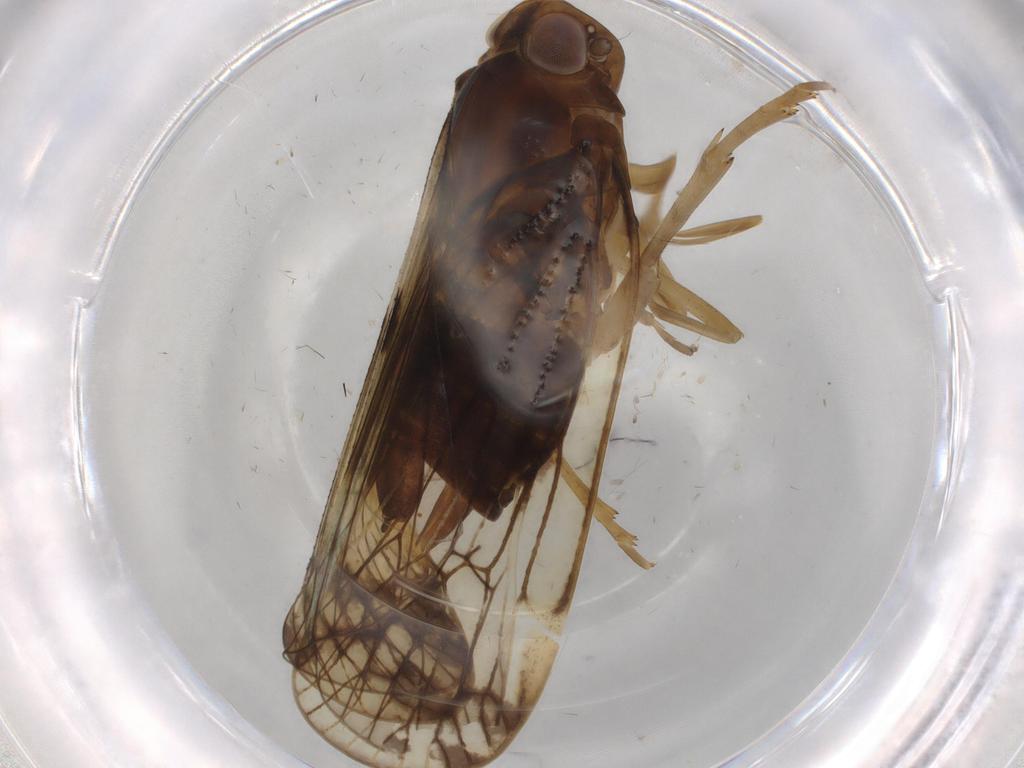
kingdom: Animalia
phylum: Arthropoda
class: Insecta
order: Hemiptera
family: Cixiidae
